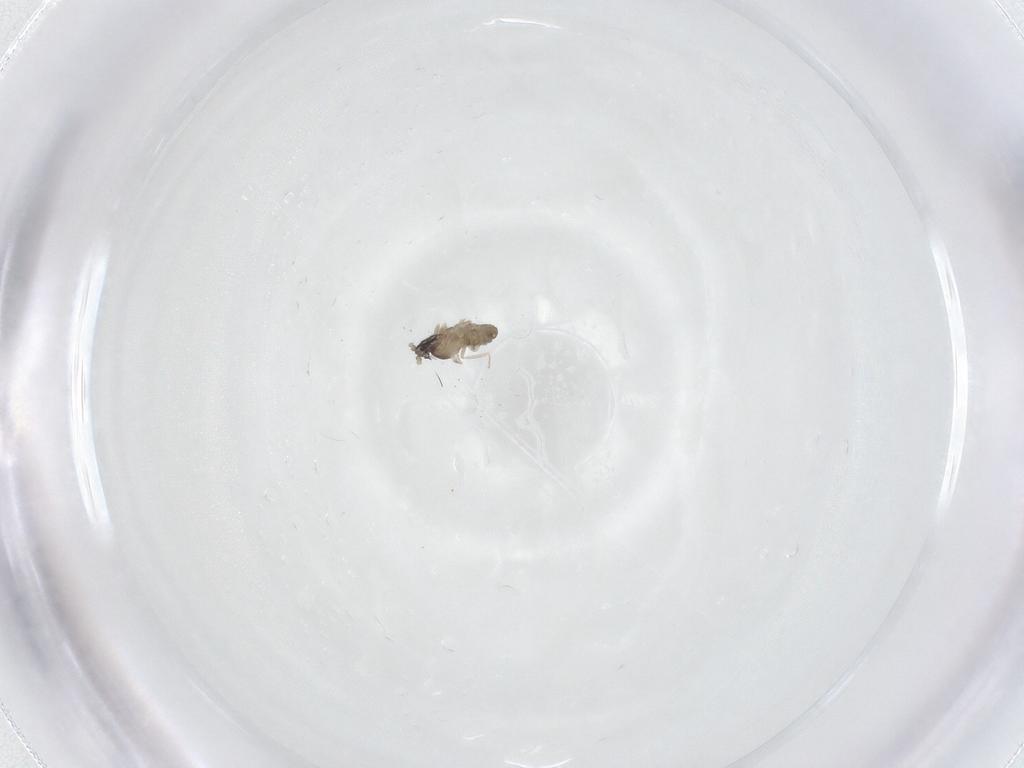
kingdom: Animalia
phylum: Arthropoda
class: Insecta
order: Diptera
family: Cecidomyiidae
